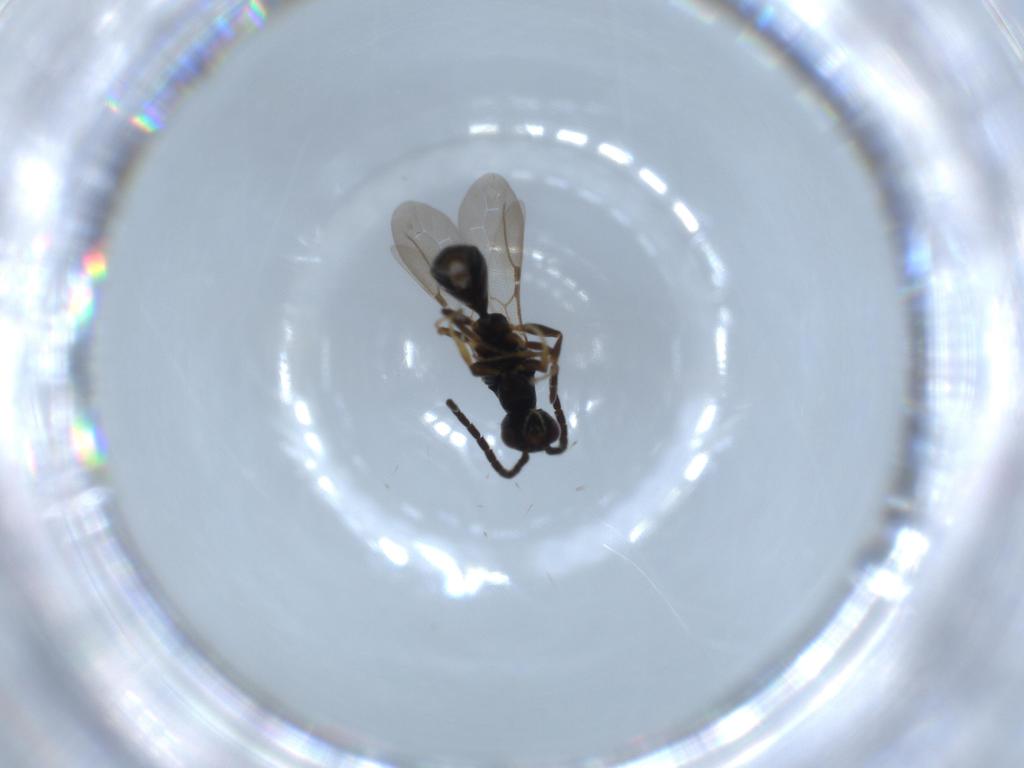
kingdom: Animalia
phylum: Arthropoda
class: Insecta
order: Hymenoptera
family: Bethylidae
